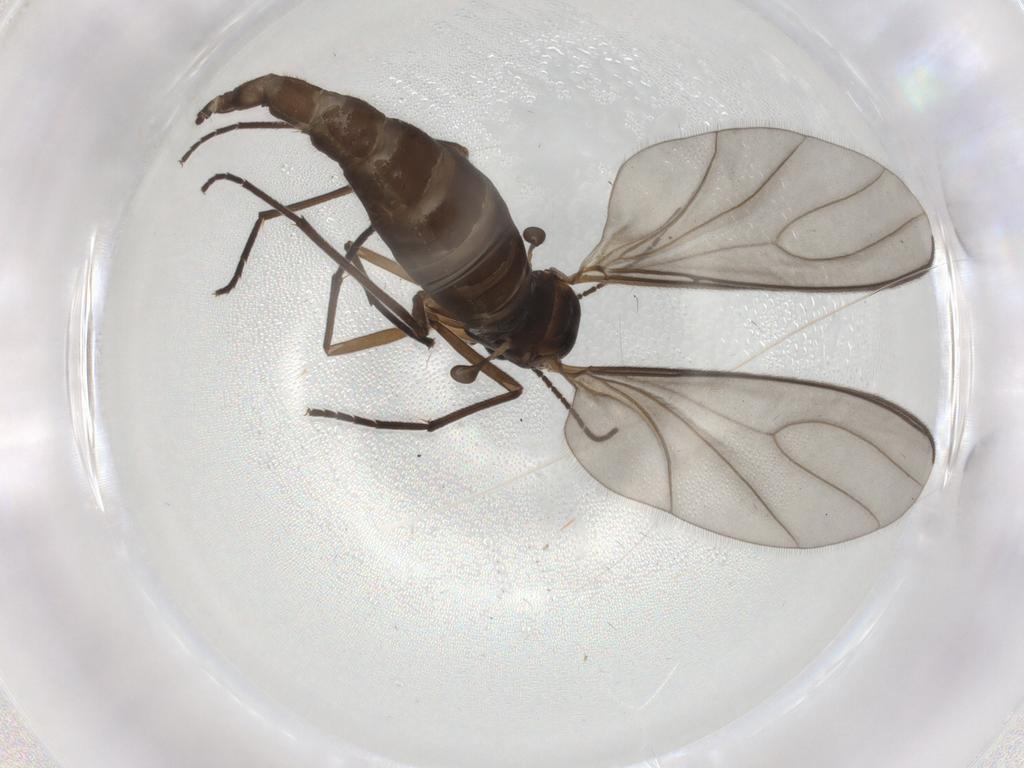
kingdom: Animalia
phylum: Arthropoda
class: Insecta
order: Diptera
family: Sciaridae
